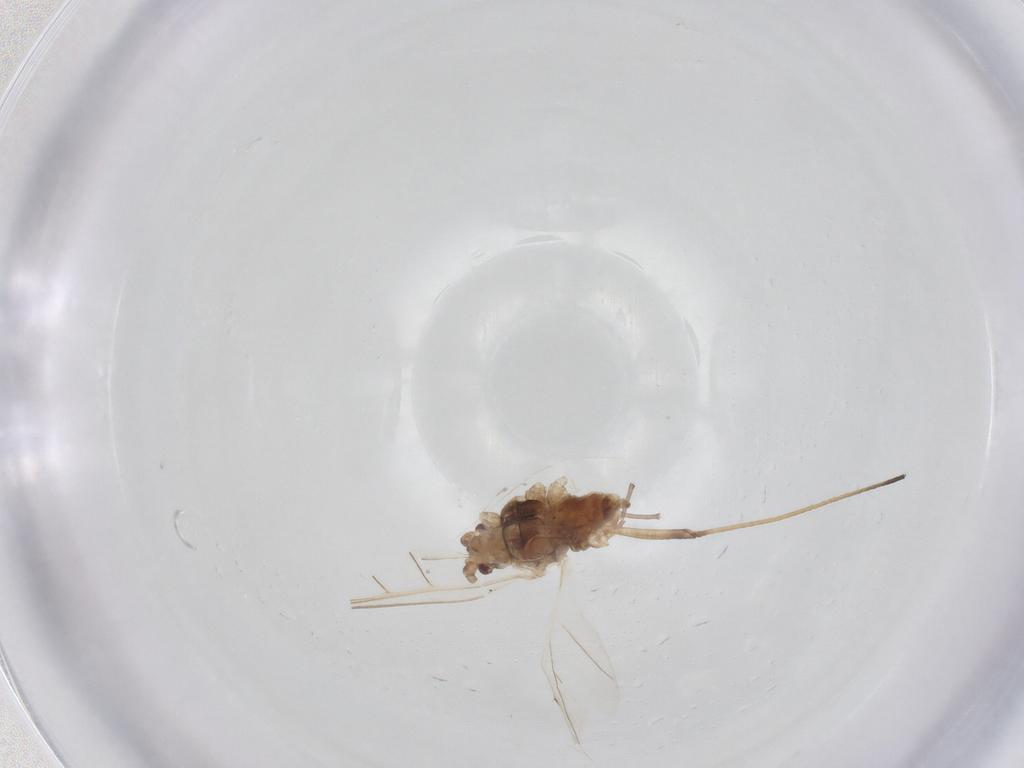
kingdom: Animalia
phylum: Arthropoda
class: Insecta
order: Hemiptera
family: Aphididae
